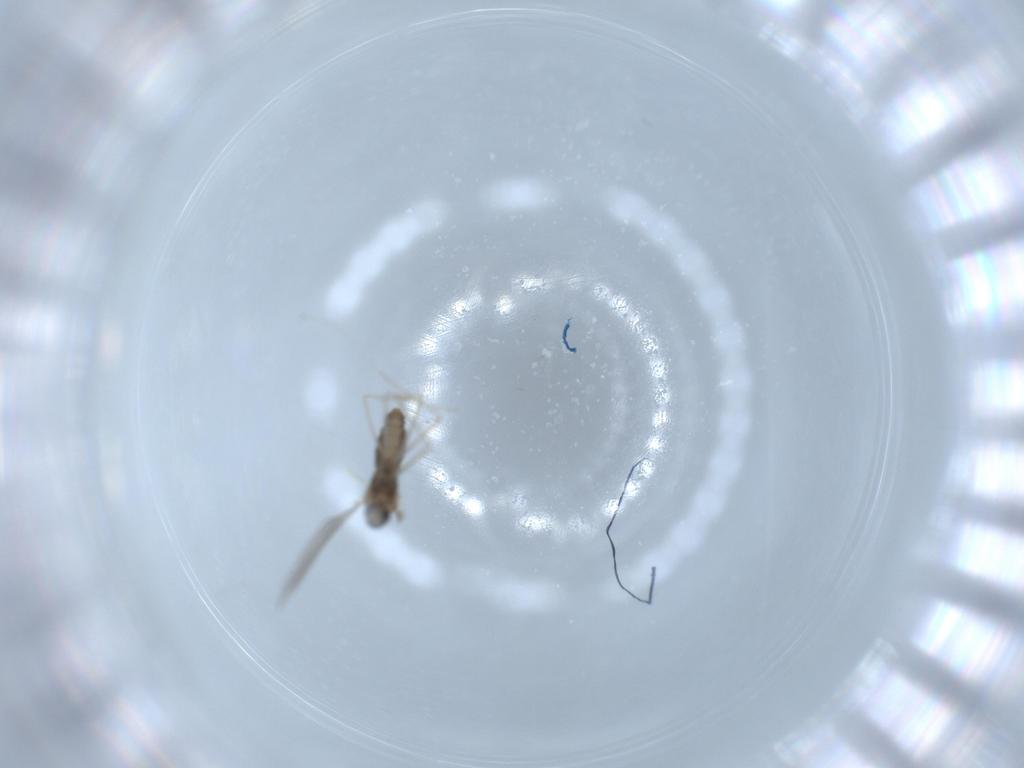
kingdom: Animalia
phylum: Arthropoda
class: Insecta
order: Diptera
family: Cecidomyiidae
